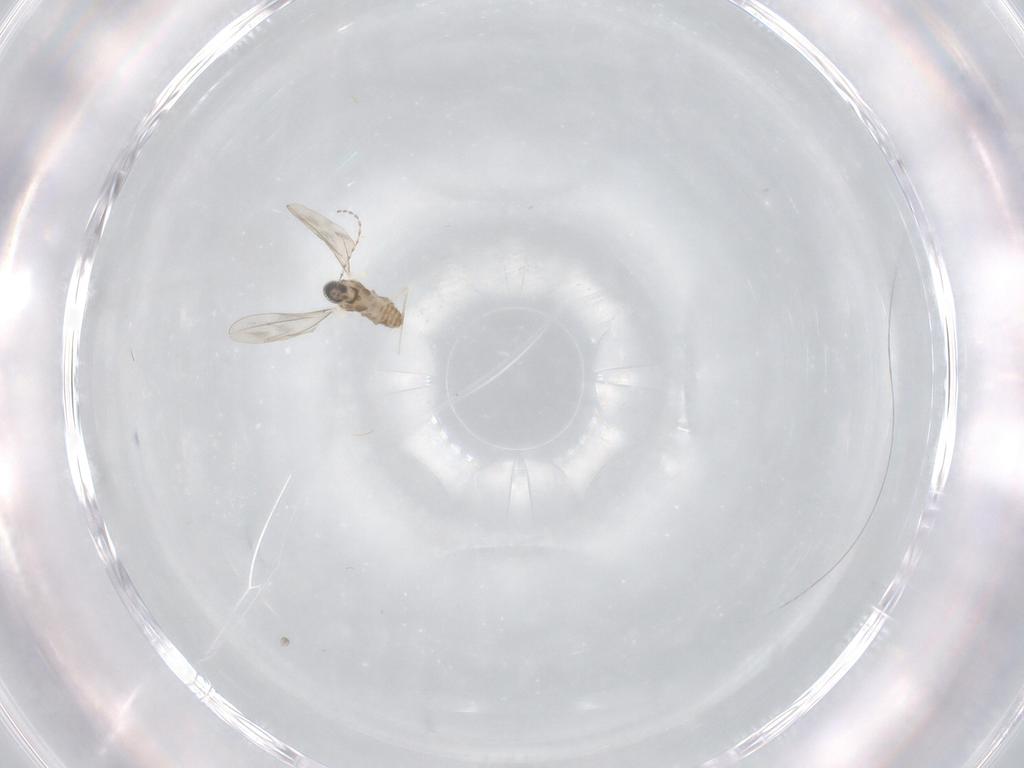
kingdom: Animalia
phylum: Arthropoda
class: Insecta
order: Diptera
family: Cecidomyiidae
